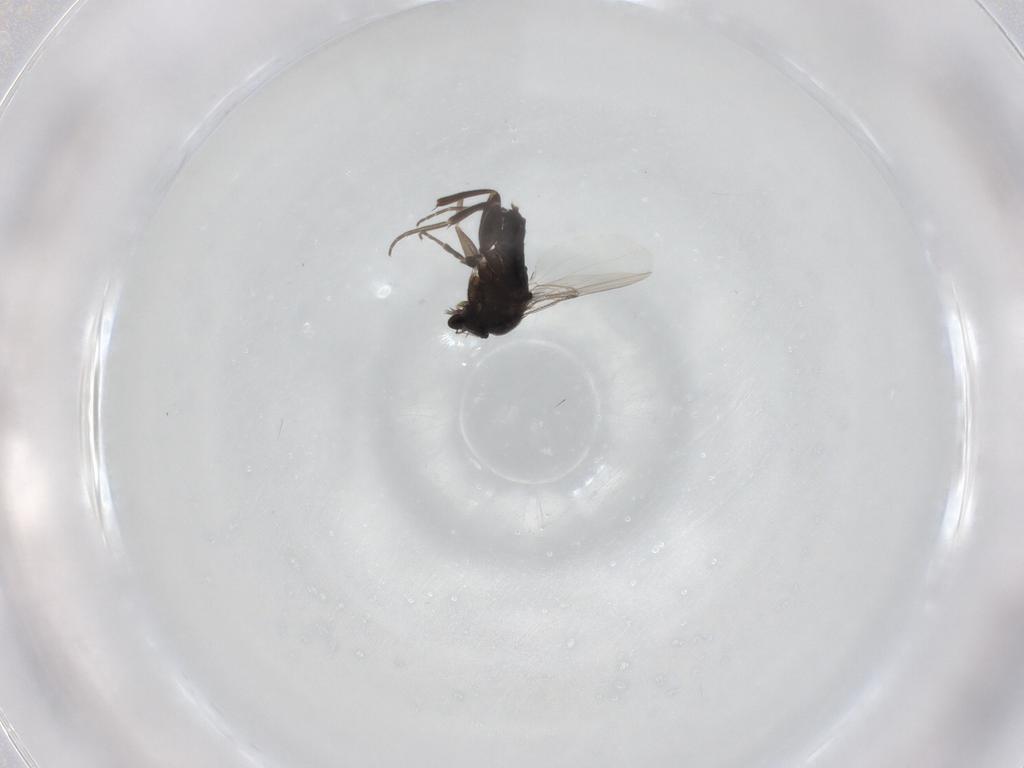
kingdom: Animalia
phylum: Arthropoda
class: Insecta
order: Diptera
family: Phoridae
